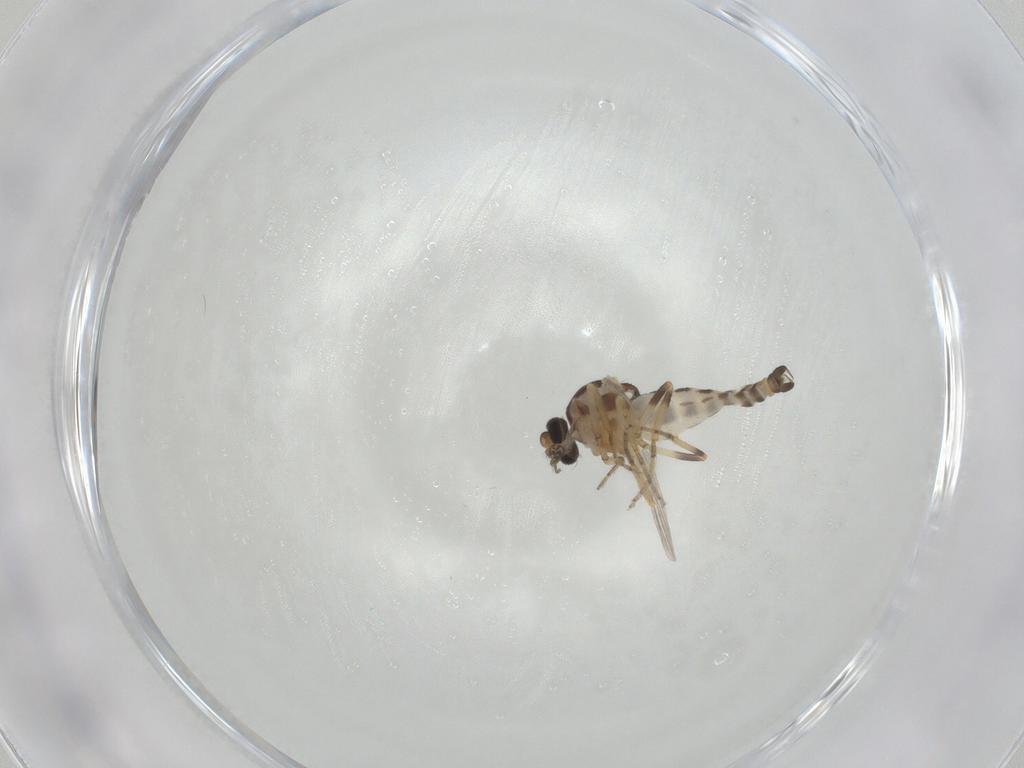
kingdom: Animalia
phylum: Arthropoda
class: Insecta
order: Diptera
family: Ceratopogonidae
